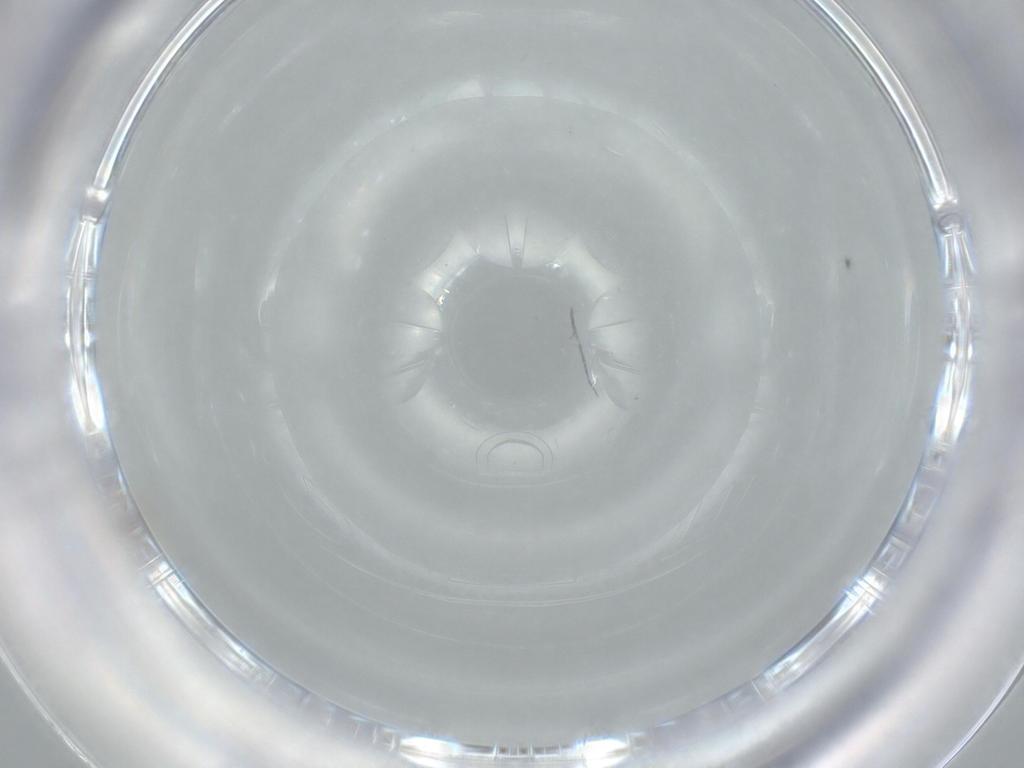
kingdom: Animalia
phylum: Arthropoda
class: Insecta
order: Diptera
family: Cecidomyiidae
